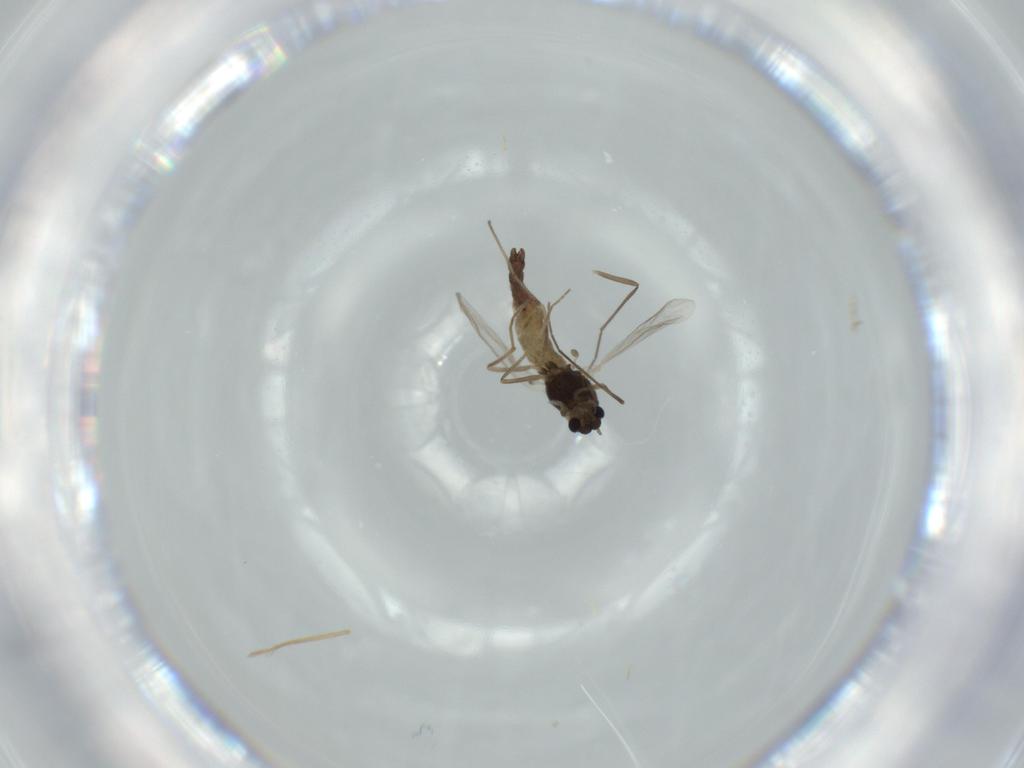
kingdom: Animalia
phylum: Arthropoda
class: Insecta
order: Diptera
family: Chironomidae
